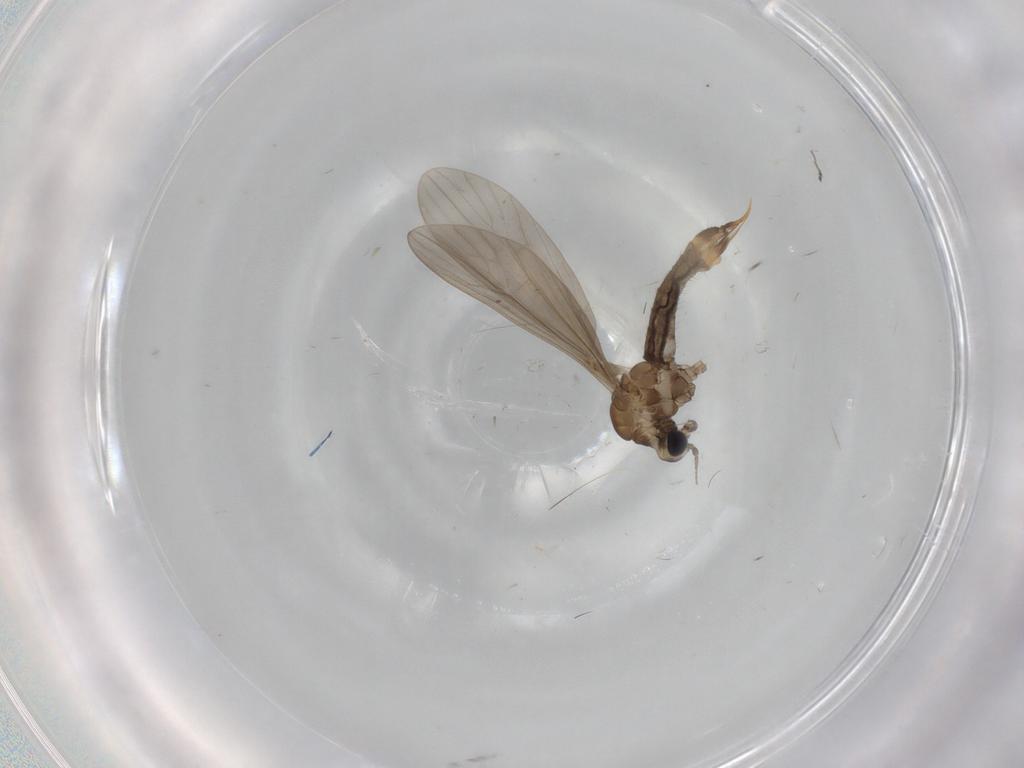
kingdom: Animalia
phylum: Arthropoda
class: Insecta
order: Diptera
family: Limoniidae
